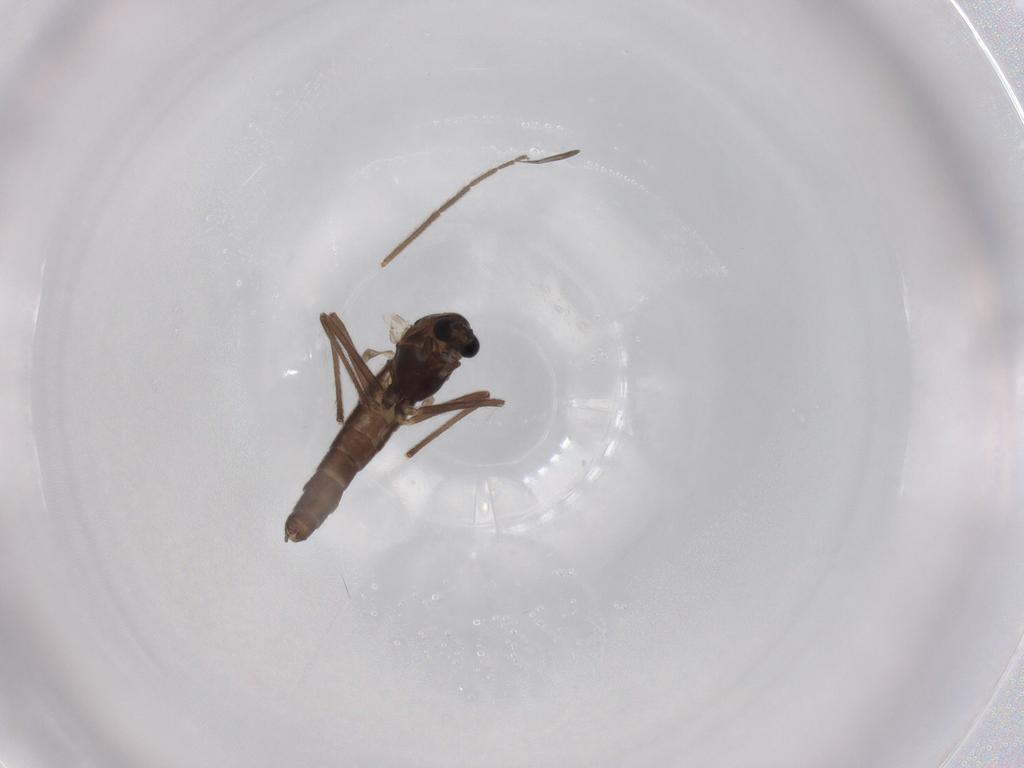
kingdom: Animalia
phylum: Arthropoda
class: Insecta
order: Diptera
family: Chironomidae
